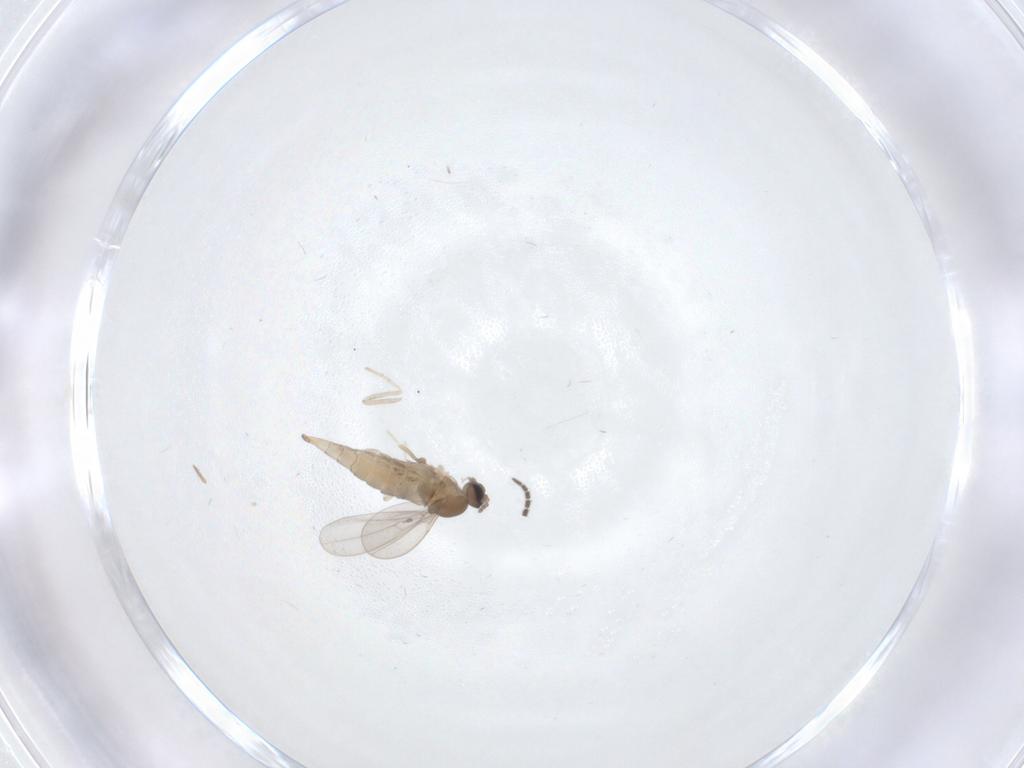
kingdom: Animalia
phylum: Arthropoda
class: Insecta
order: Diptera
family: Cecidomyiidae
